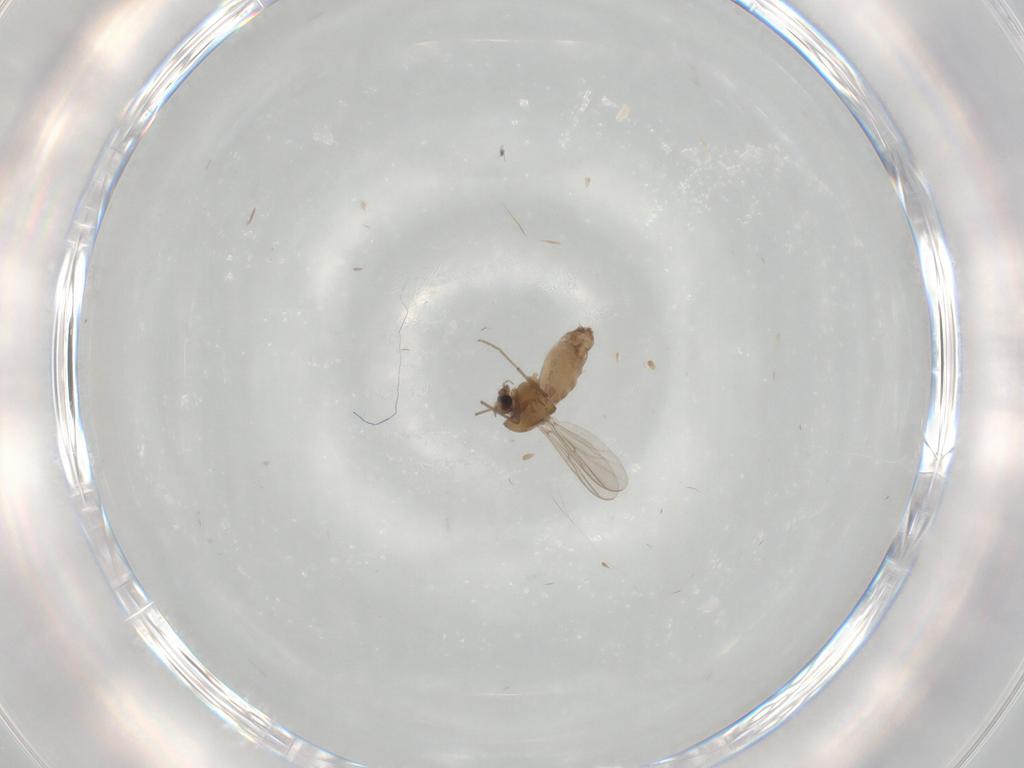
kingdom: Animalia
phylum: Arthropoda
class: Insecta
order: Diptera
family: Chironomidae
